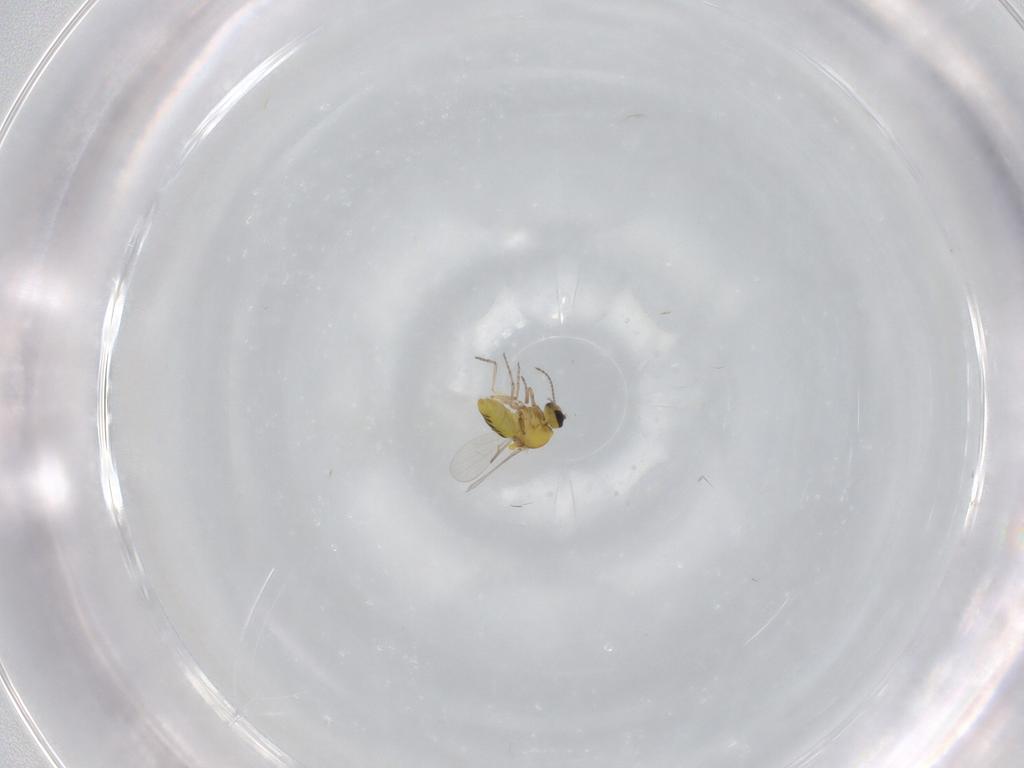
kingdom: Animalia
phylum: Arthropoda
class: Insecta
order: Diptera
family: Ceratopogonidae
